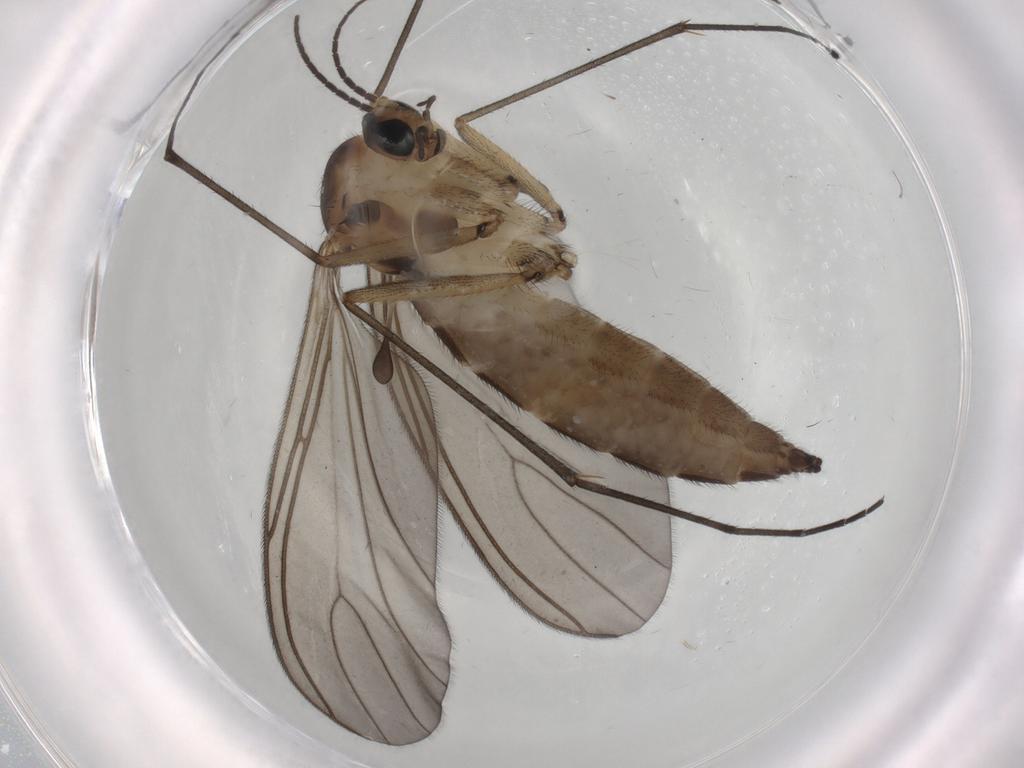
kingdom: Animalia
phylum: Arthropoda
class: Insecta
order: Diptera
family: Sciaridae
